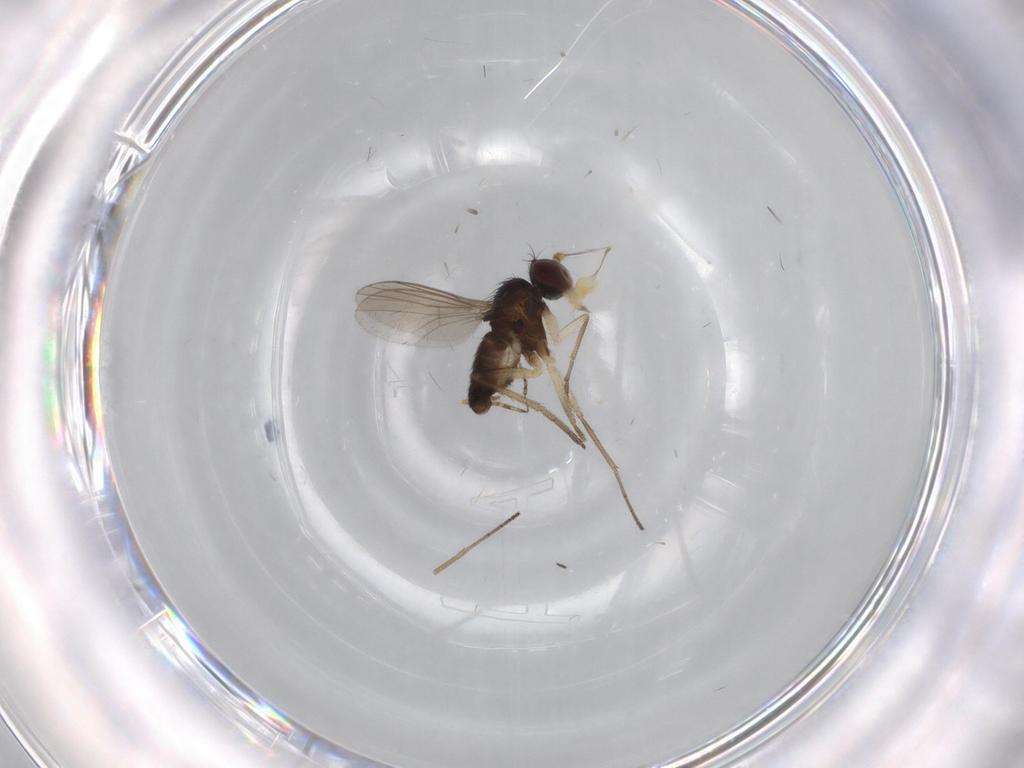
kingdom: Animalia
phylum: Arthropoda
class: Insecta
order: Diptera
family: Dolichopodidae
